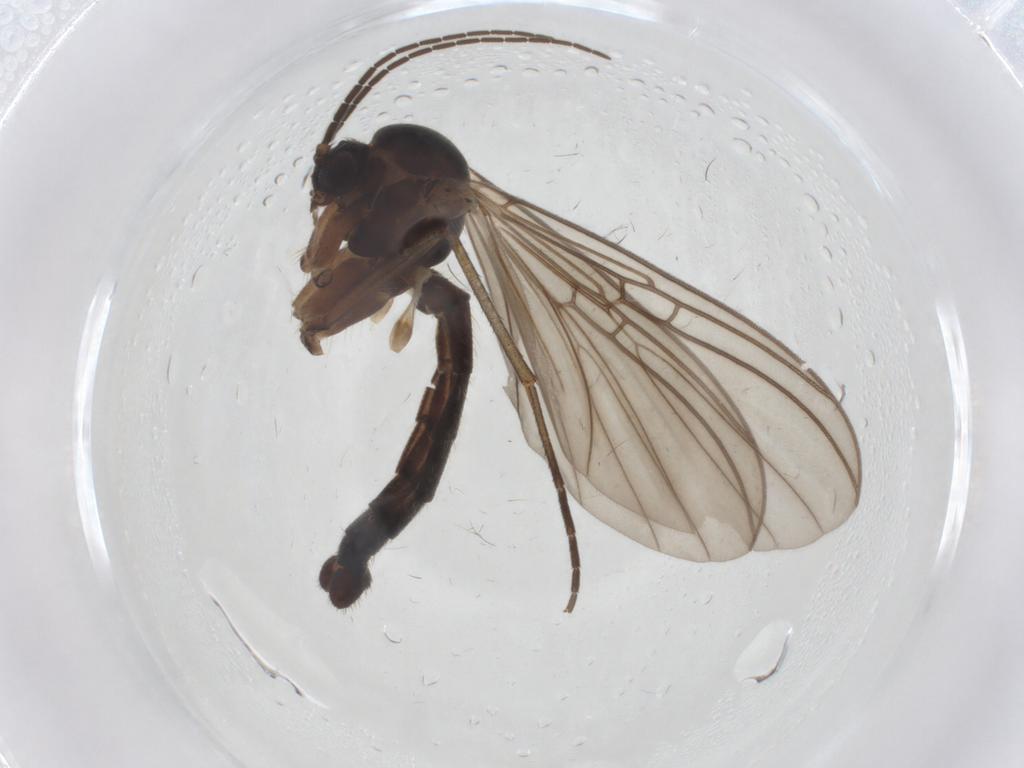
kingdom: Animalia
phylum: Arthropoda
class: Insecta
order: Diptera
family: Mycetophilidae
